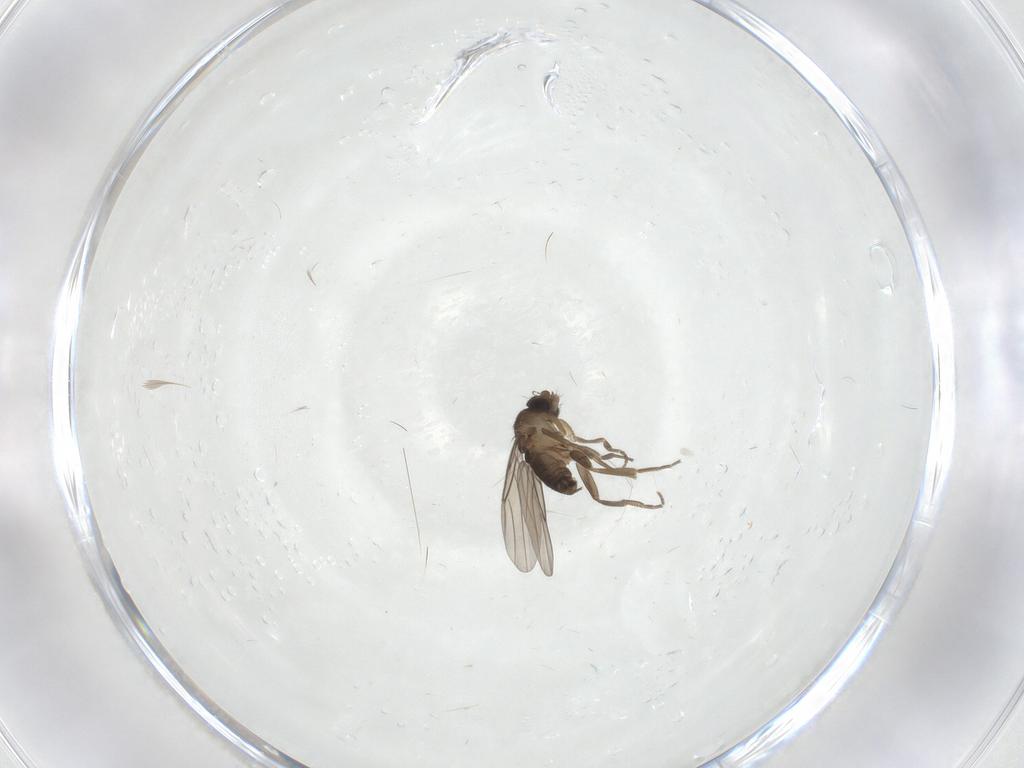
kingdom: Animalia
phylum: Arthropoda
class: Insecta
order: Diptera
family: Phoridae
